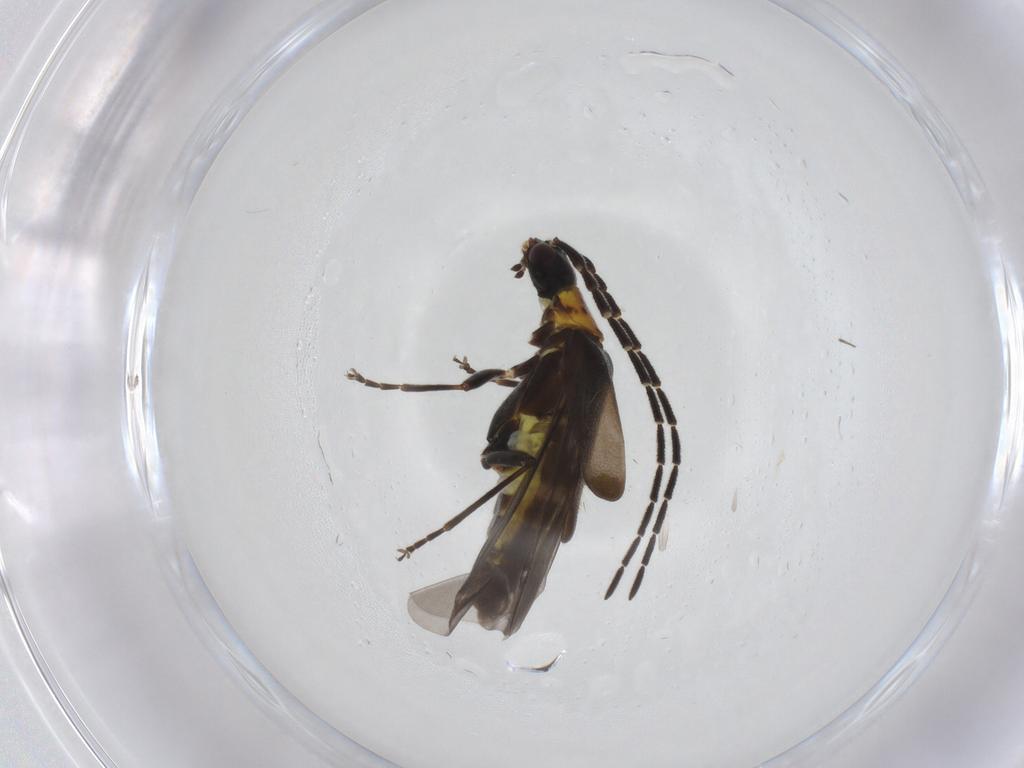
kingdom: Animalia
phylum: Arthropoda
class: Insecta
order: Coleoptera
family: Cantharidae
